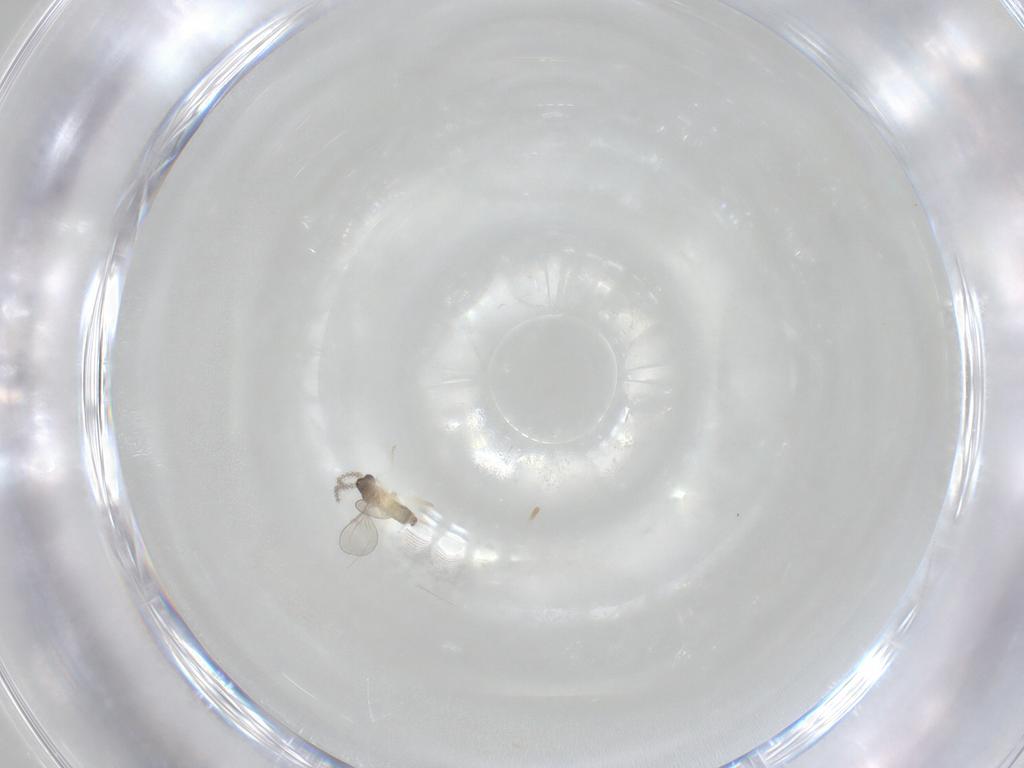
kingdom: Animalia
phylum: Arthropoda
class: Insecta
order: Diptera
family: Cecidomyiidae
